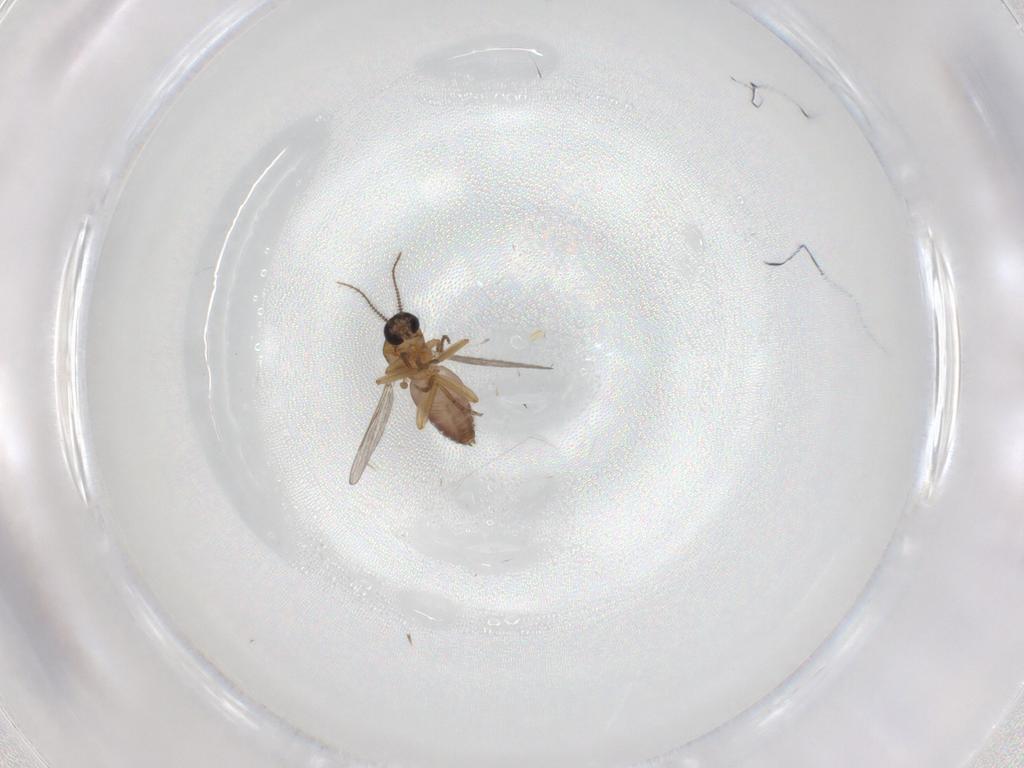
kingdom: Animalia
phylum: Arthropoda
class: Insecta
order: Diptera
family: Ceratopogonidae
